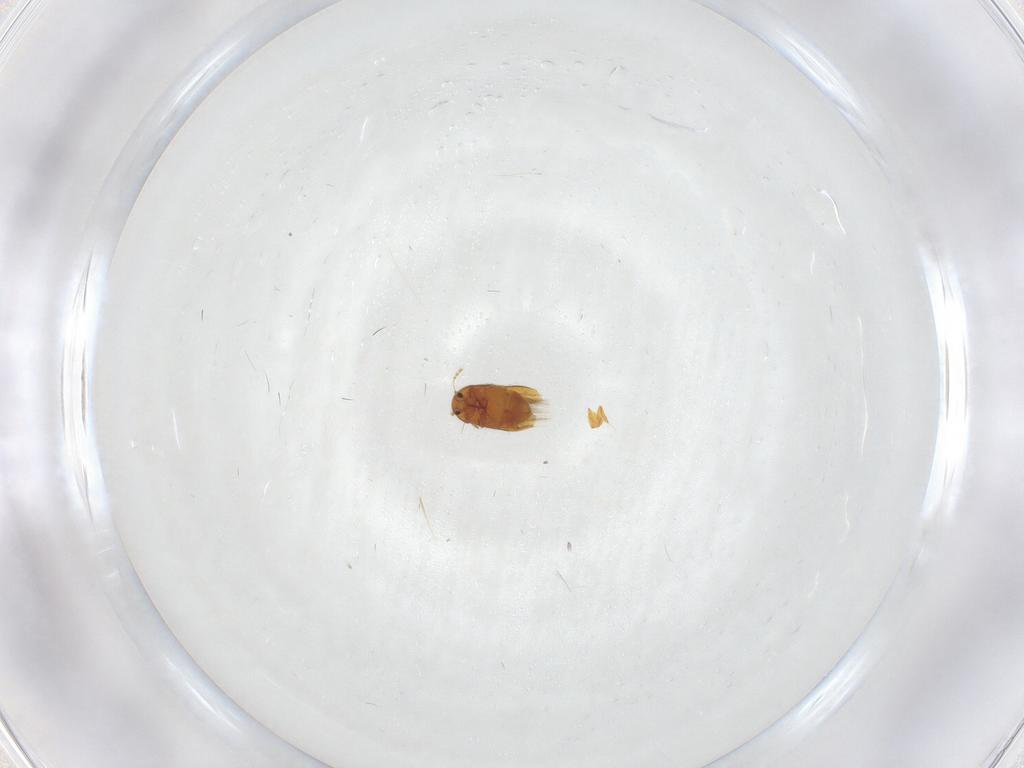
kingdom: Animalia
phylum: Arthropoda
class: Insecta
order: Coleoptera
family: Ptiliidae
